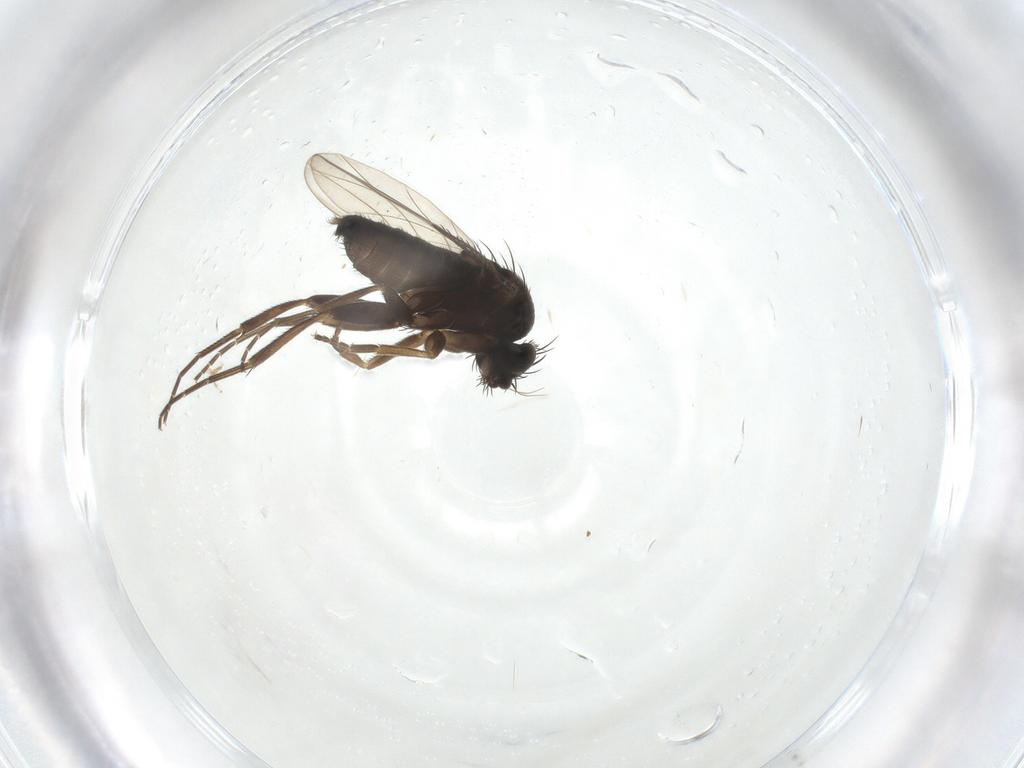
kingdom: Animalia
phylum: Arthropoda
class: Insecta
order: Diptera
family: Phoridae
